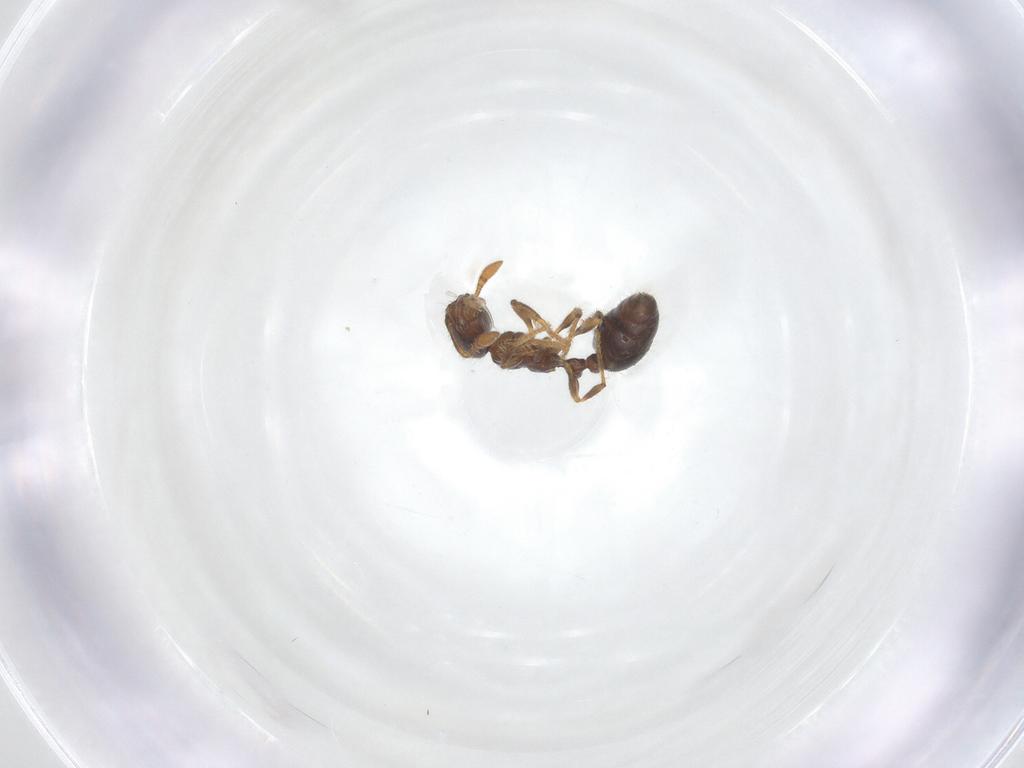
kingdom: Animalia
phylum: Arthropoda
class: Insecta
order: Hymenoptera
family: Formicidae
